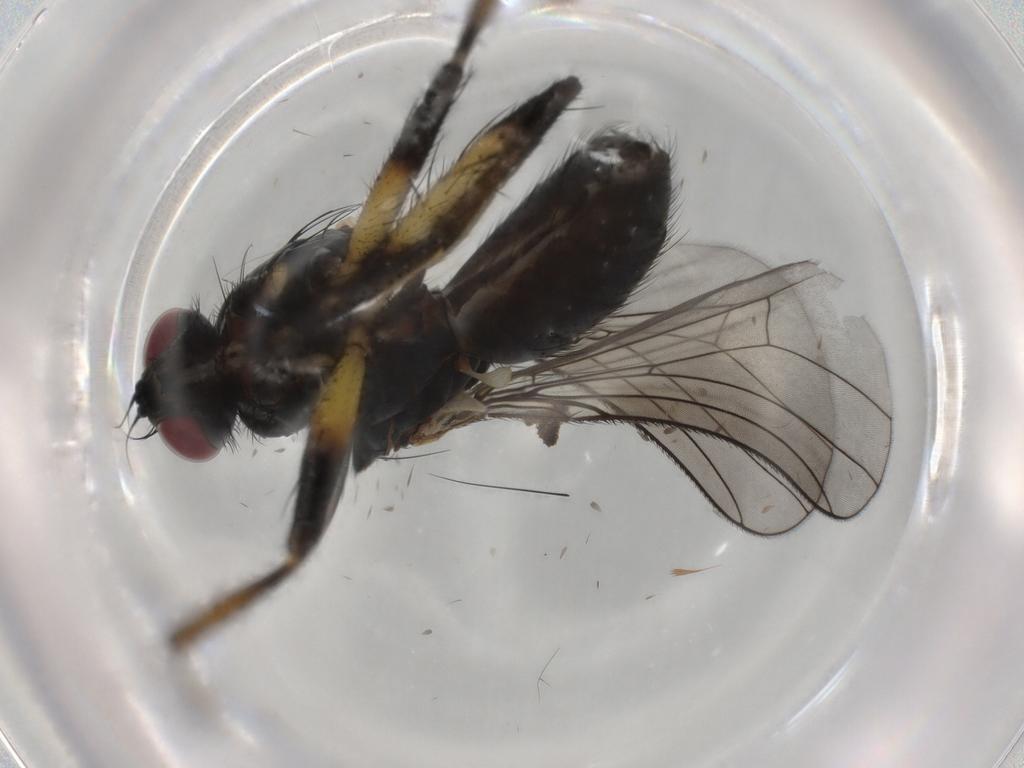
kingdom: Animalia
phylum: Arthropoda
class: Insecta
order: Diptera
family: Muscidae
